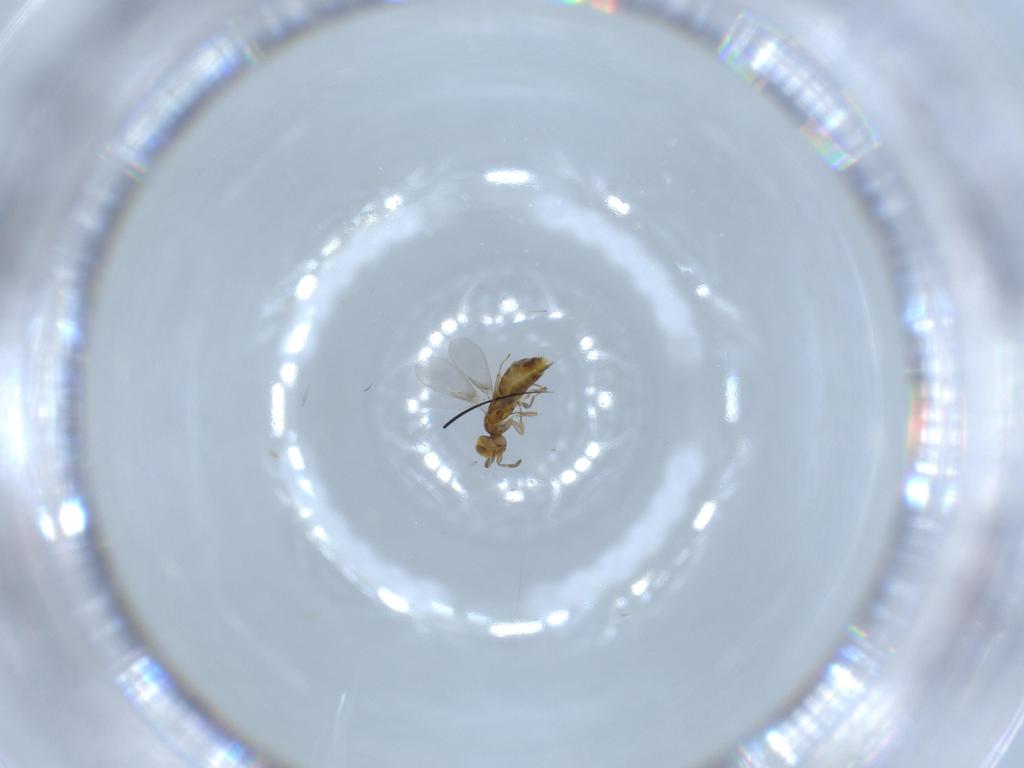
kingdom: Animalia
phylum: Arthropoda
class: Insecta
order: Hymenoptera
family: Aphelinidae
